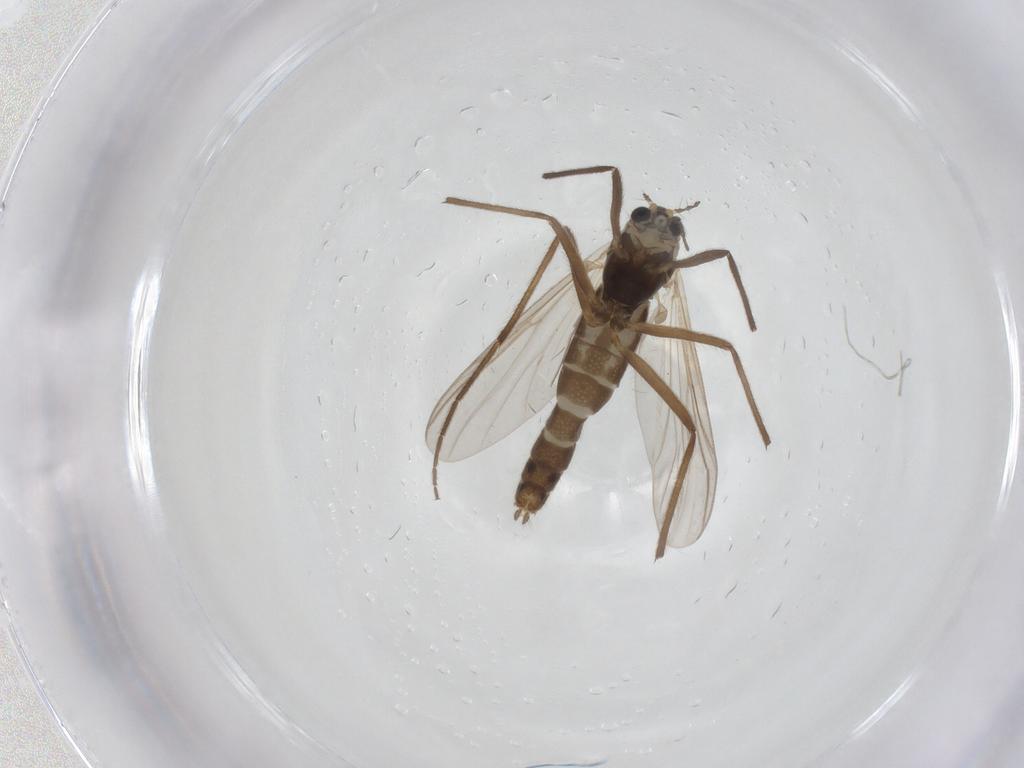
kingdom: Animalia
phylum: Arthropoda
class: Insecta
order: Diptera
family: Chironomidae
